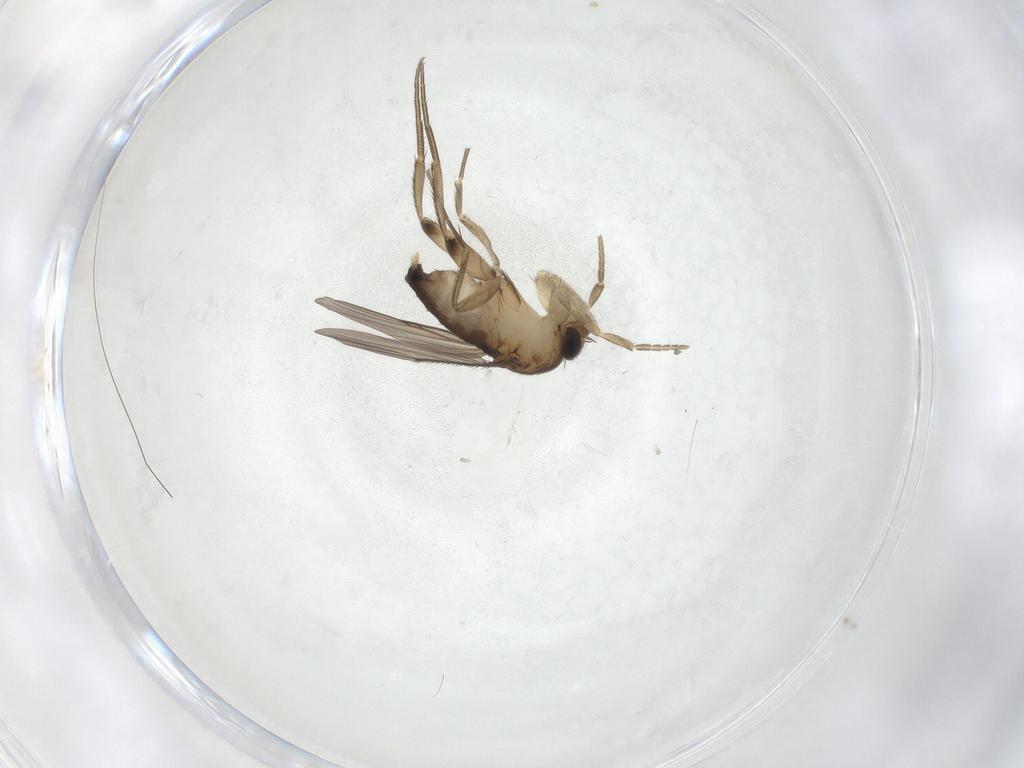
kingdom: Animalia
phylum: Arthropoda
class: Insecta
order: Diptera
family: Phoridae
